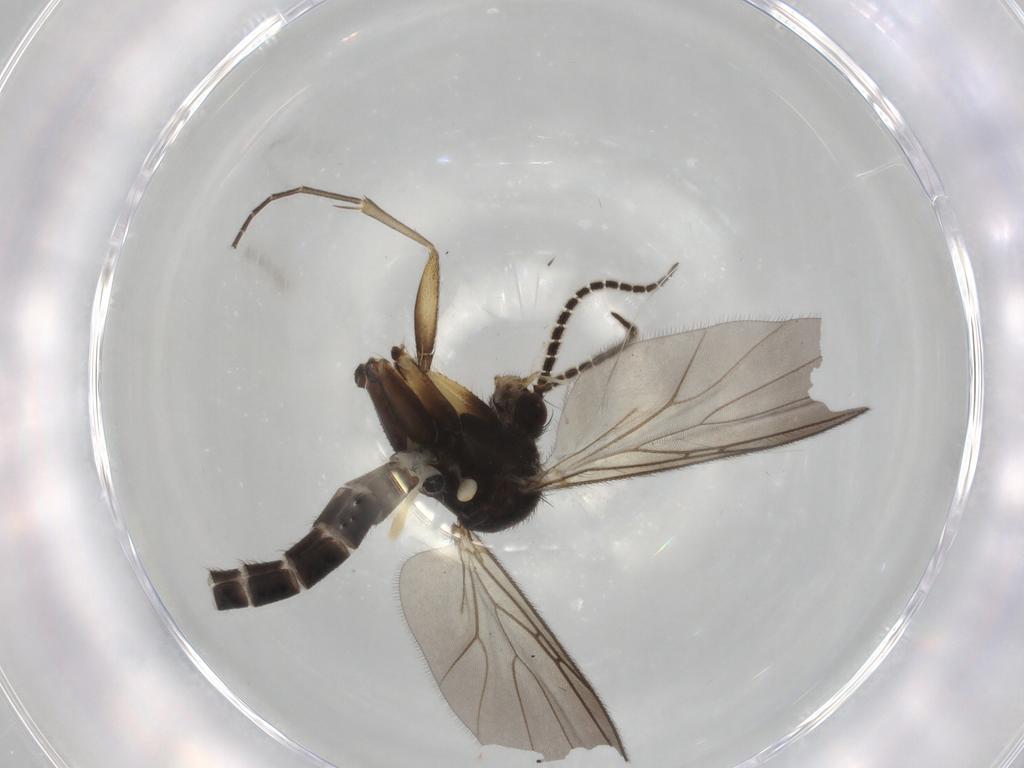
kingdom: Animalia
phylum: Arthropoda
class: Insecta
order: Diptera
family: Mycetophilidae
